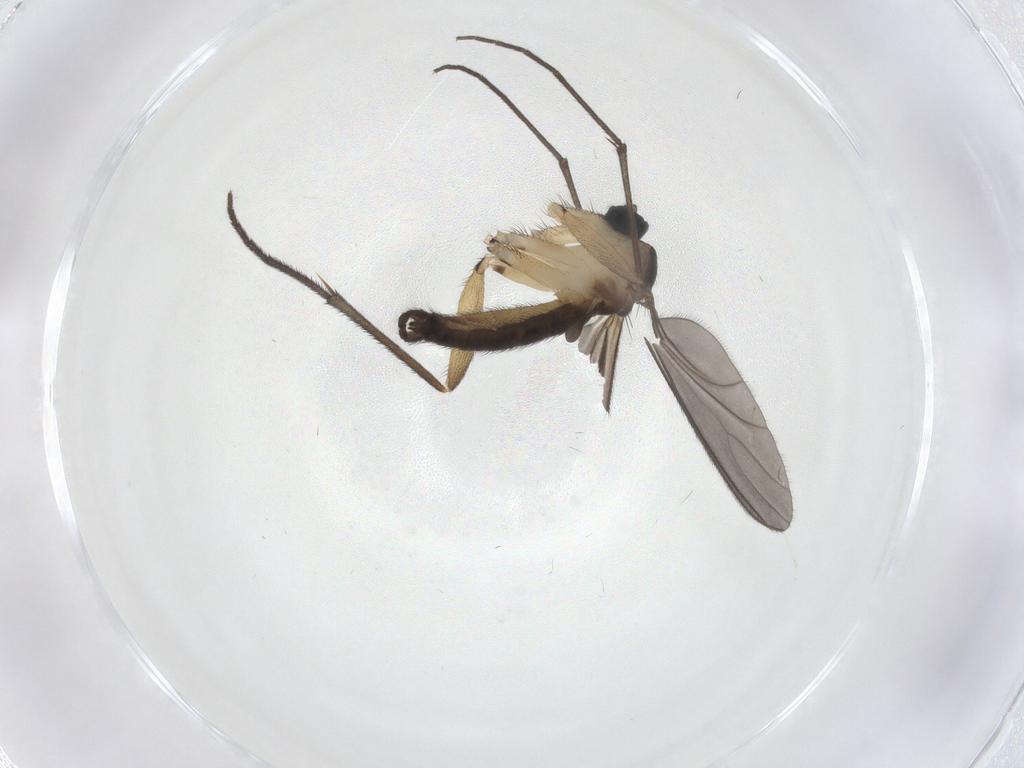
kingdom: Animalia
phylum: Arthropoda
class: Insecta
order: Diptera
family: Sciaridae
